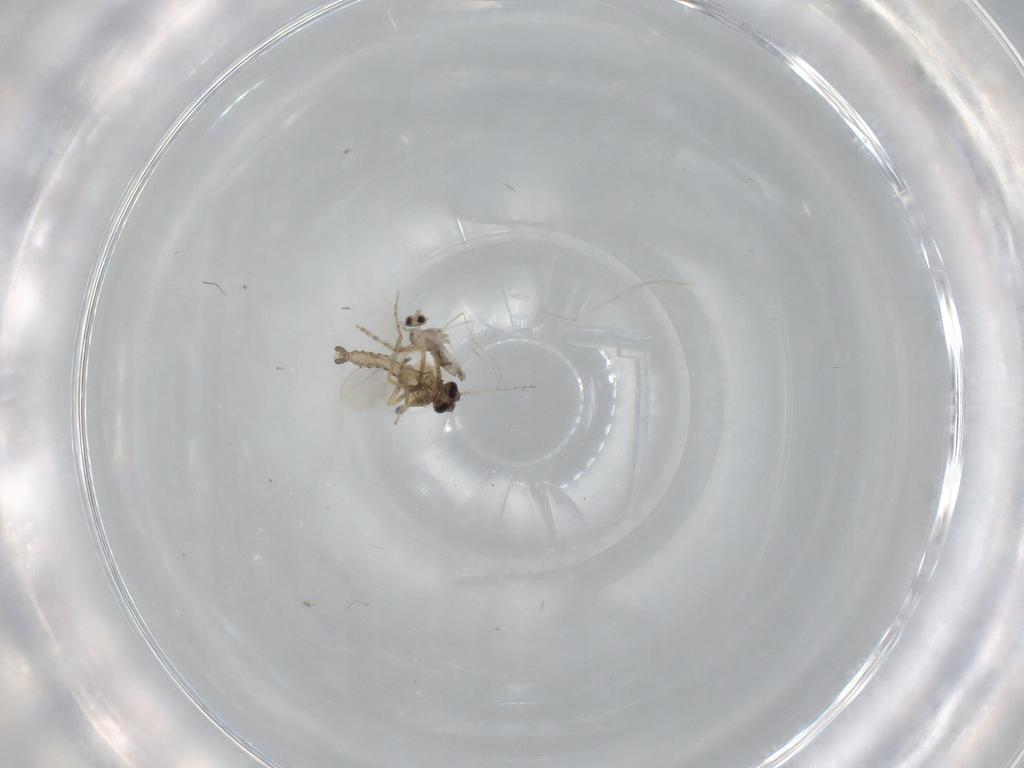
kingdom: Animalia
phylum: Arthropoda
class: Insecta
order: Diptera
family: Cecidomyiidae
